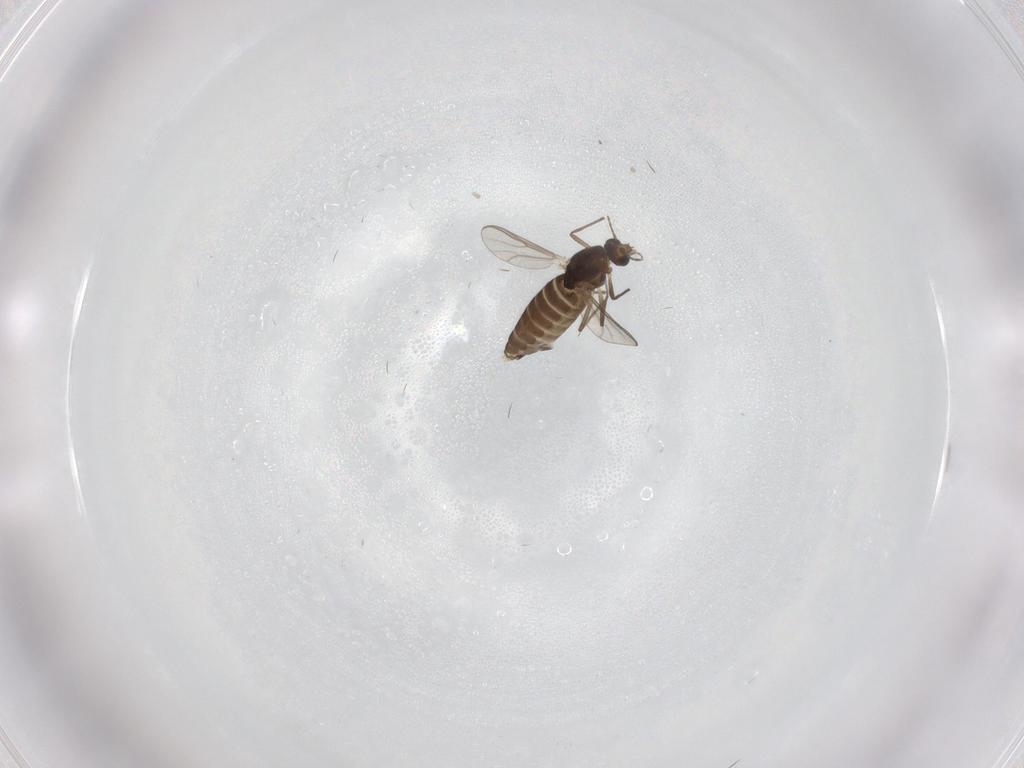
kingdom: Animalia
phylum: Arthropoda
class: Insecta
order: Diptera
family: Chironomidae
